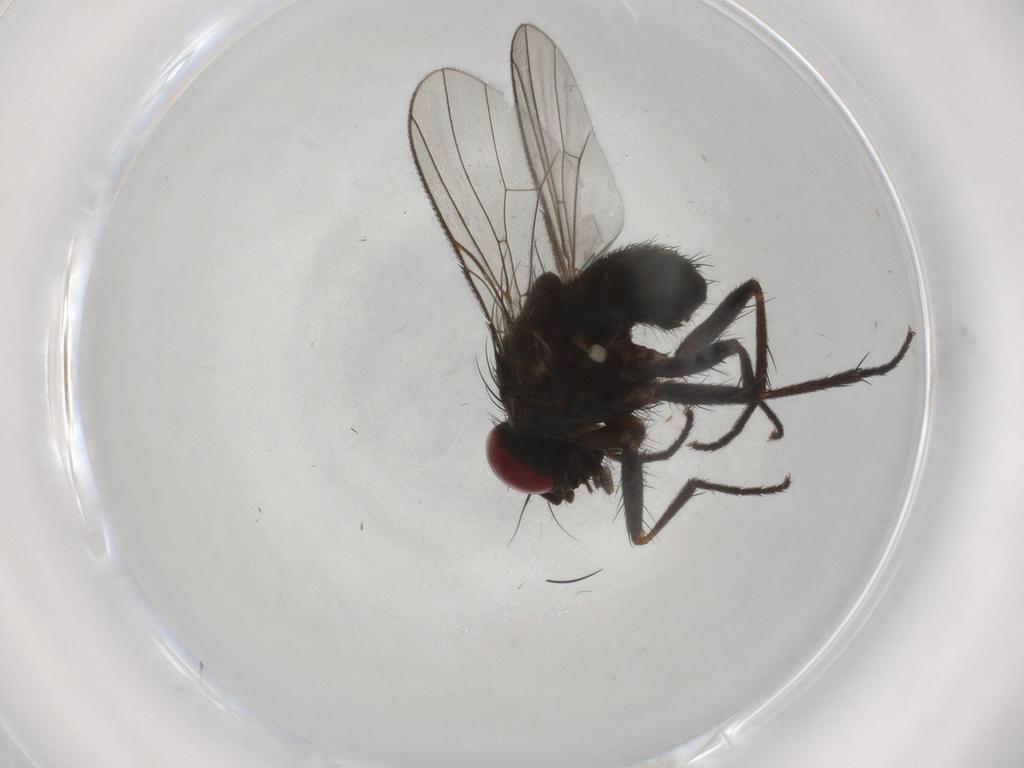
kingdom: Animalia
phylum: Arthropoda
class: Insecta
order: Diptera
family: Muscidae
